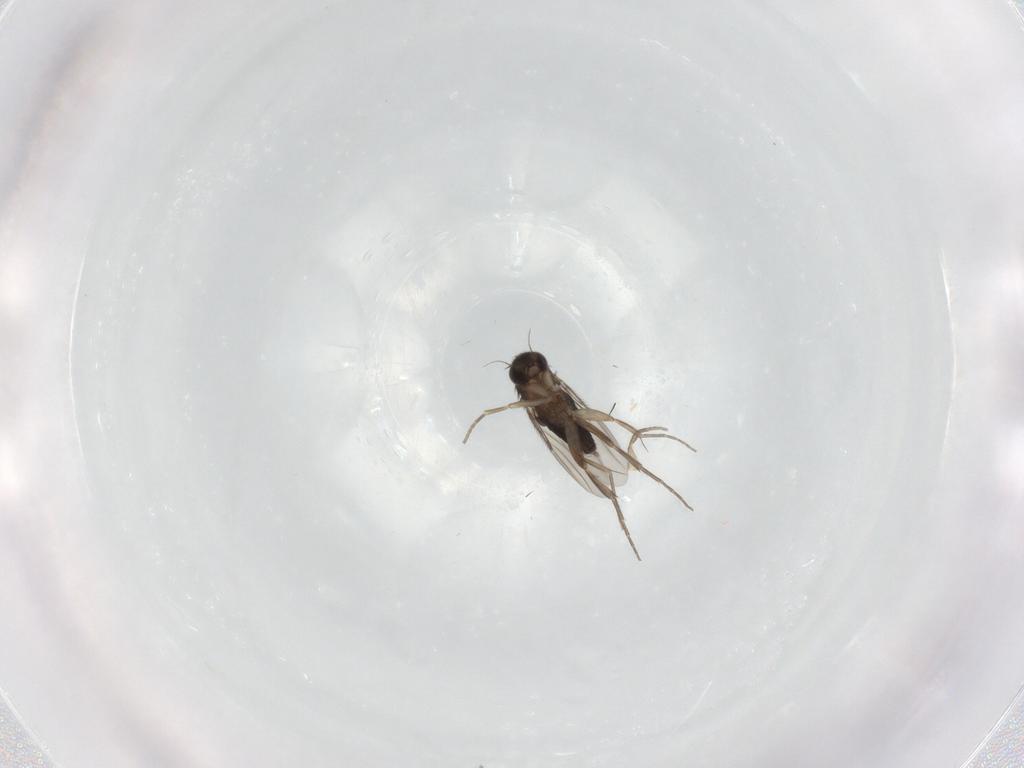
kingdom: Animalia
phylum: Arthropoda
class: Insecta
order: Diptera
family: Phoridae
